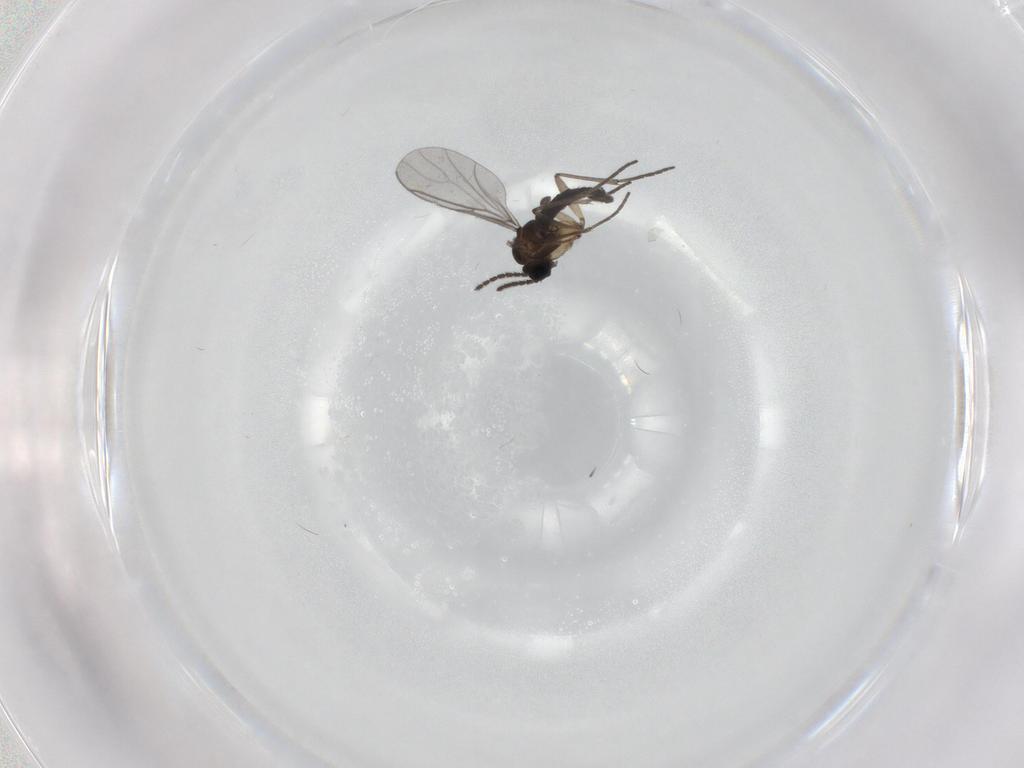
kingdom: Animalia
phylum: Arthropoda
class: Insecta
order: Diptera
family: Sciaridae
